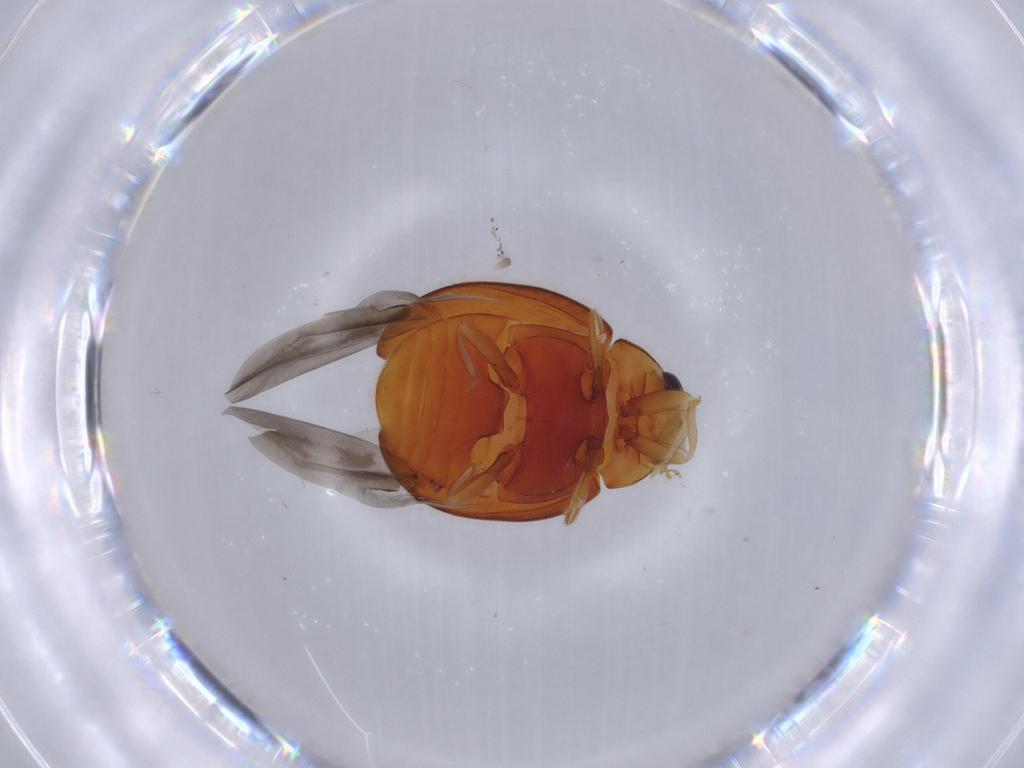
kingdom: Animalia
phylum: Arthropoda
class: Insecta
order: Coleoptera
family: Coccinellidae
